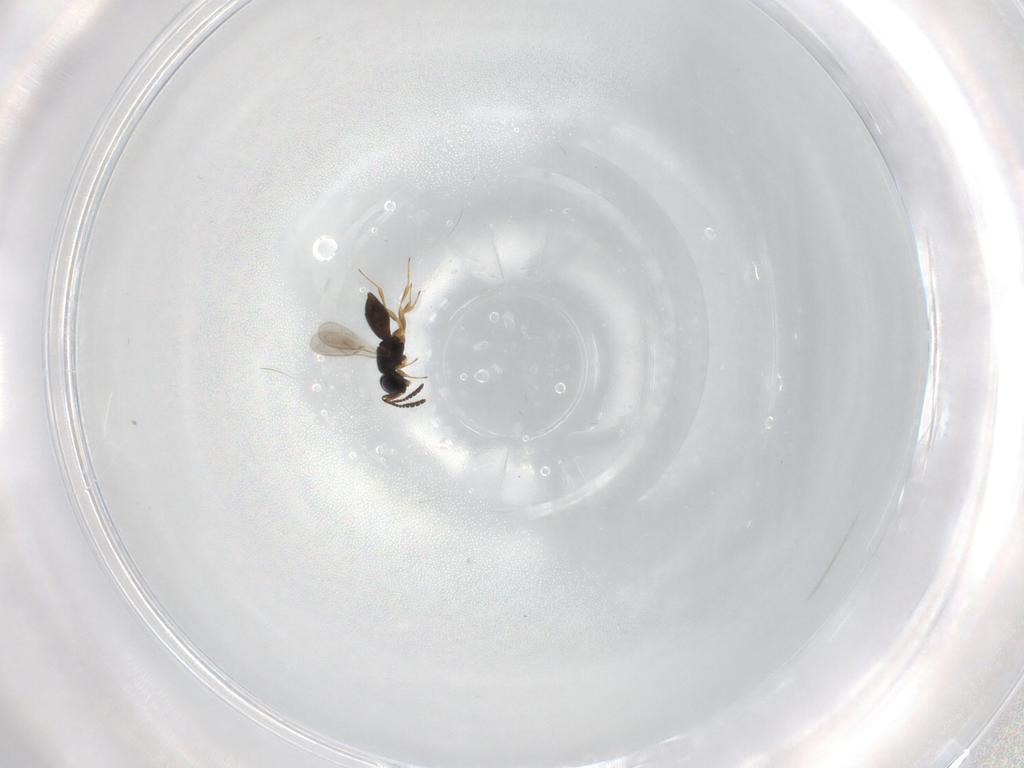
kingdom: Animalia
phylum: Arthropoda
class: Insecta
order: Hymenoptera
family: Scelionidae
